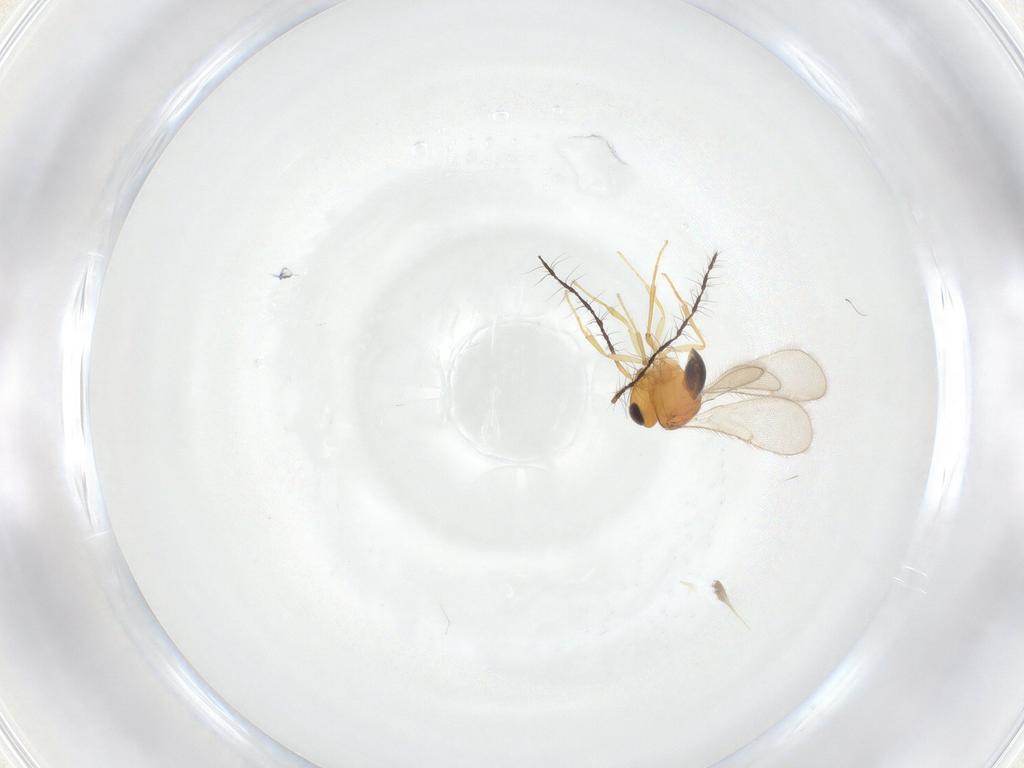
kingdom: Animalia
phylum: Arthropoda
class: Insecta
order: Hymenoptera
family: Scelionidae
